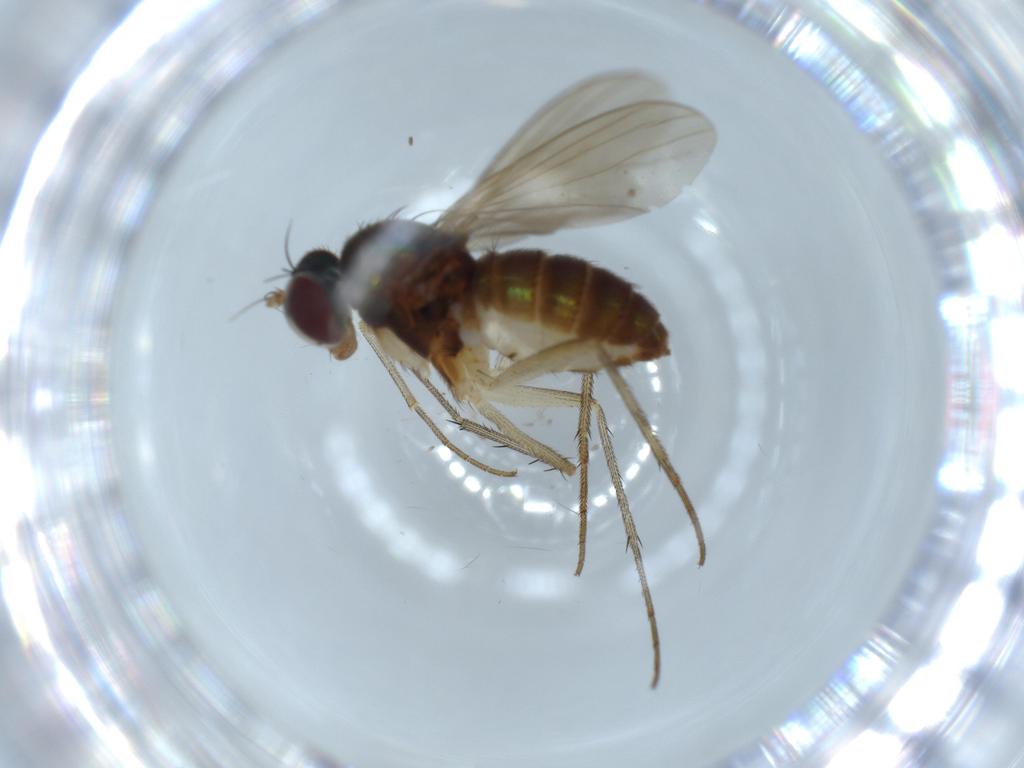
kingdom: Animalia
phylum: Arthropoda
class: Insecta
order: Diptera
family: Dolichopodidae
